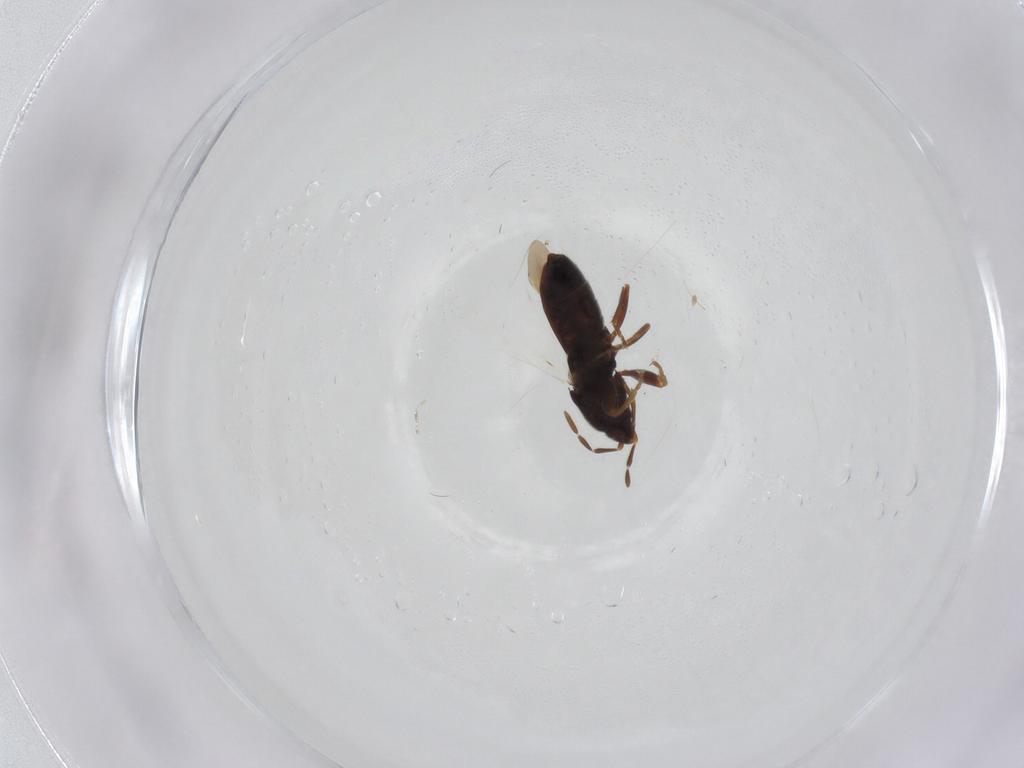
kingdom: Animalia
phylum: Arthropoda
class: Insecta
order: Hemiptera
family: Rhyparochromidae
